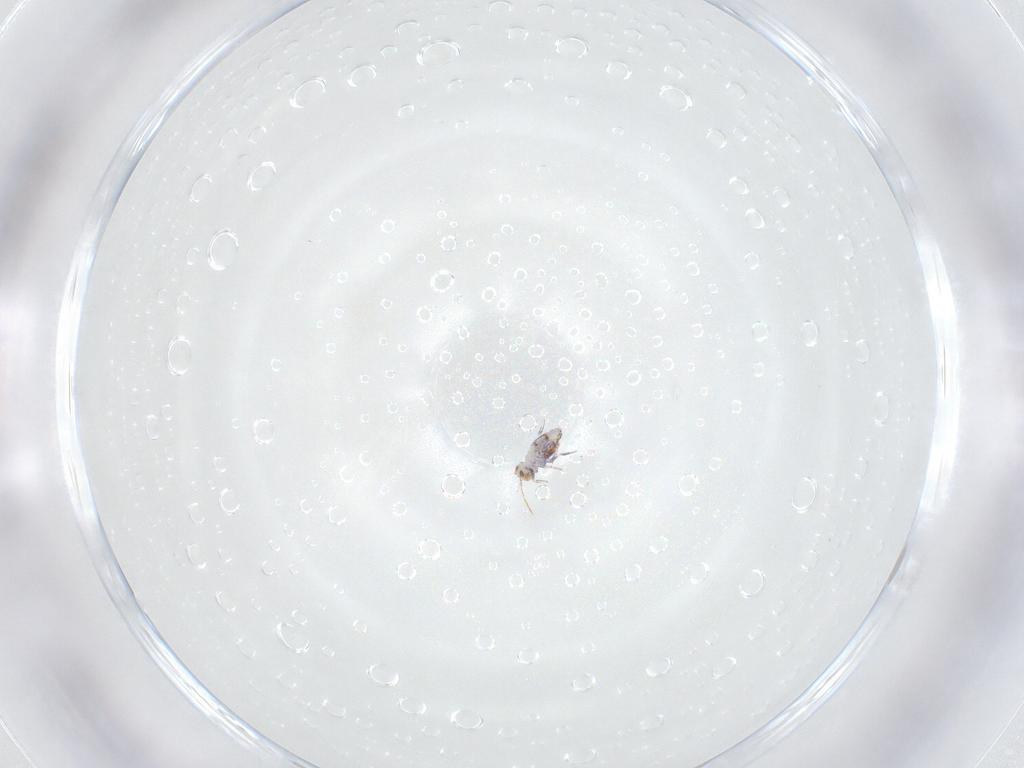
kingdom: Animalia
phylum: Arthropoda
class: Collembola
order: Symphypleona
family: Katiannidae
